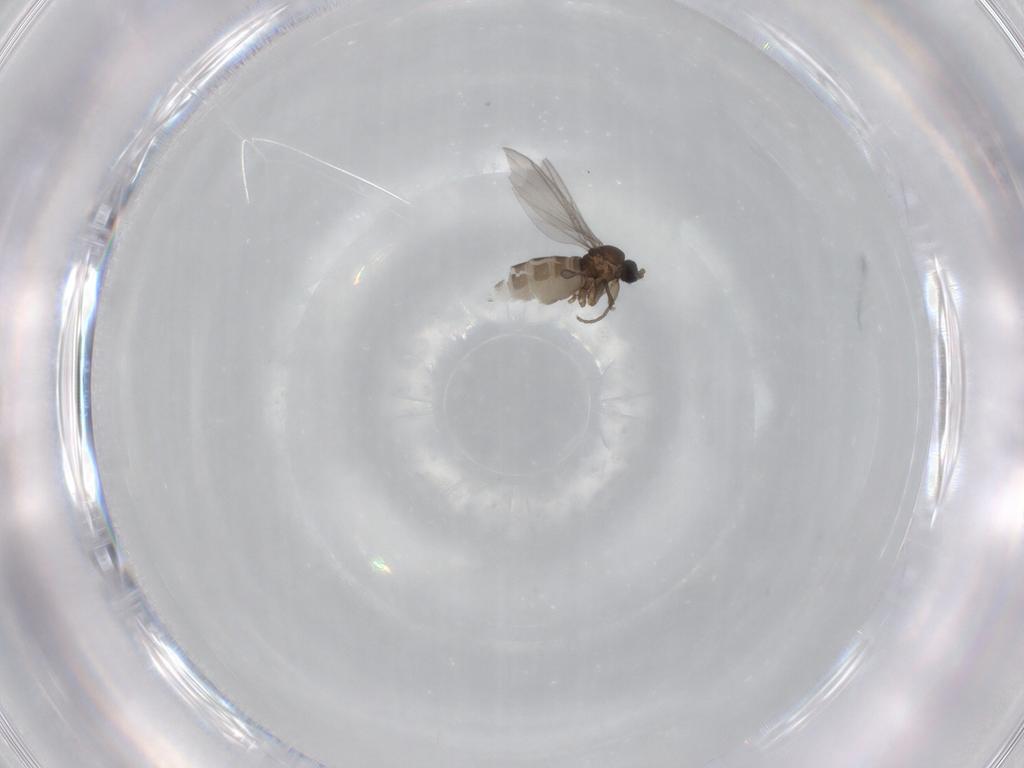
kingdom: Animalia
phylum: Arthropoda
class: Insecta
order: Diptera
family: Sciaridae
